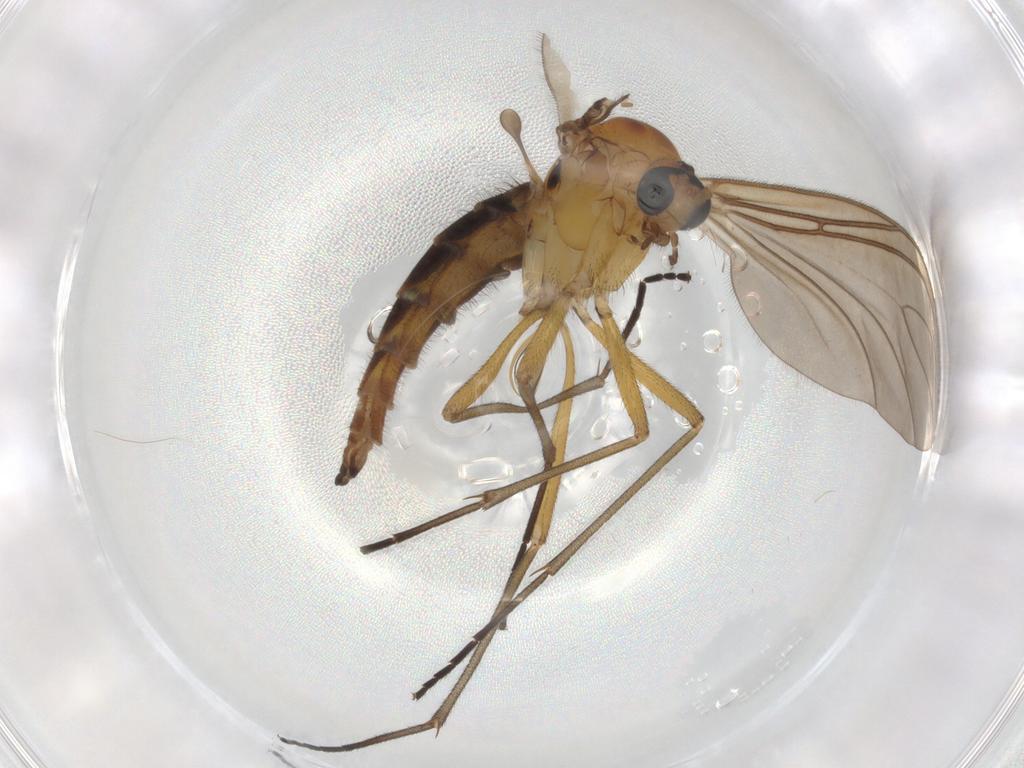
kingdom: Animalia
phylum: Arthropoda
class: Insecta
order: Diptera
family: Sciaridae
